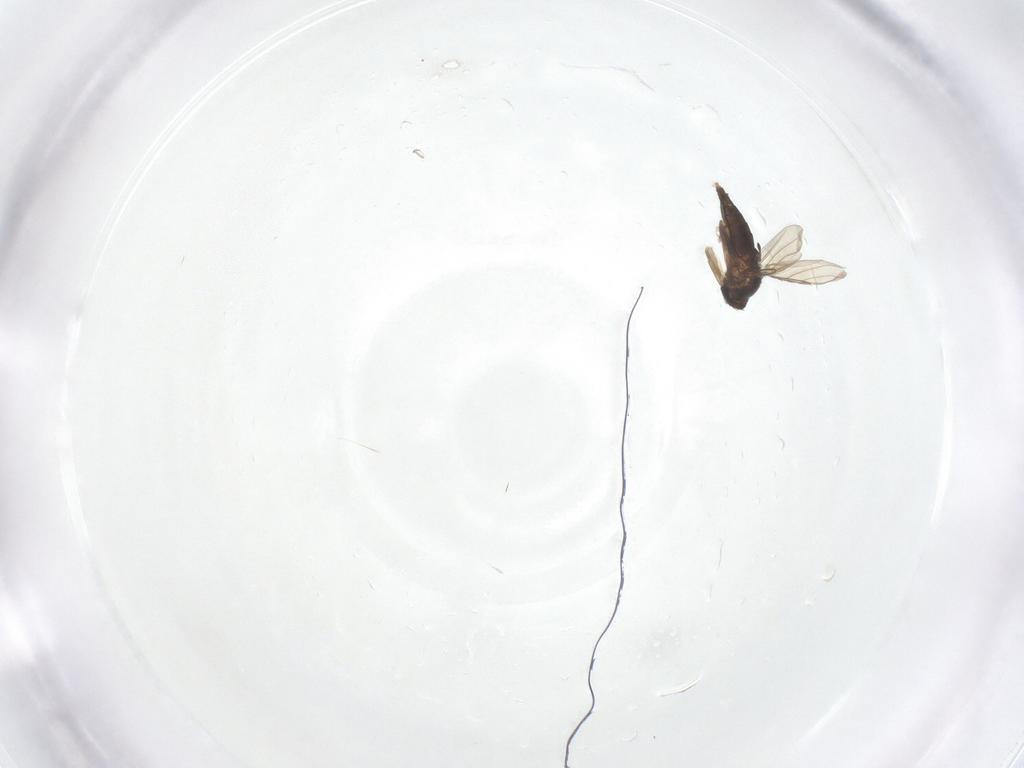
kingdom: Animalia
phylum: Arthropoda
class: Insecta
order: Diptera
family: Phoridae
